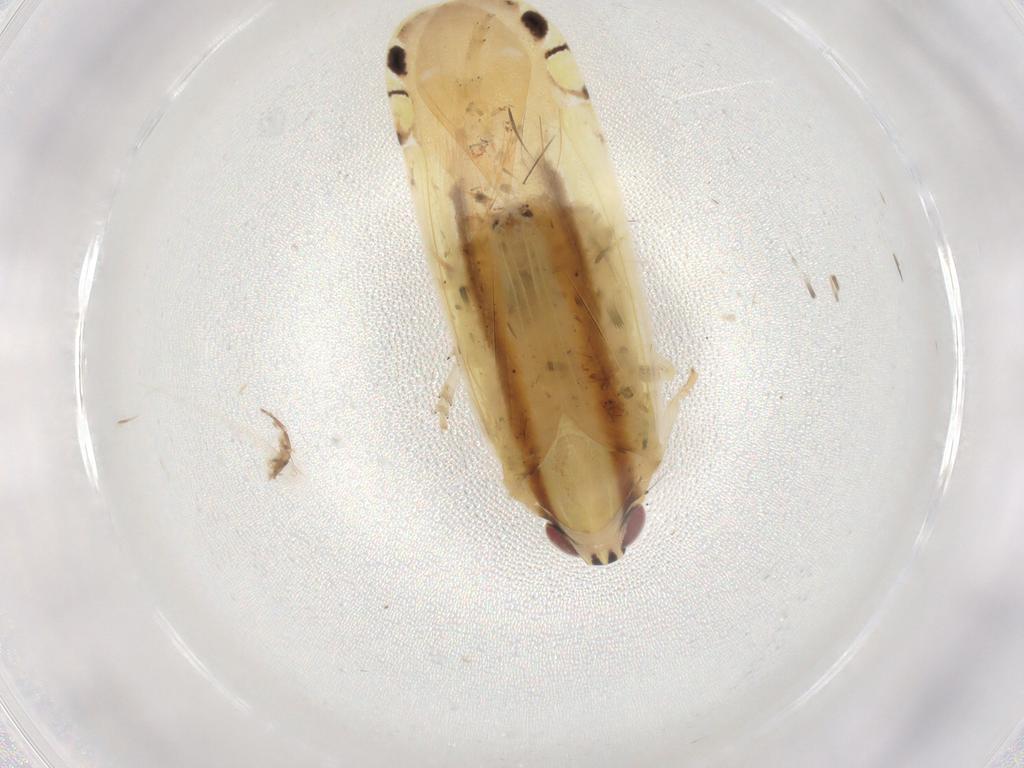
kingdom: Animalia
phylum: Arthropoda
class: Insecta
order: Hemiptera
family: Achilidae
